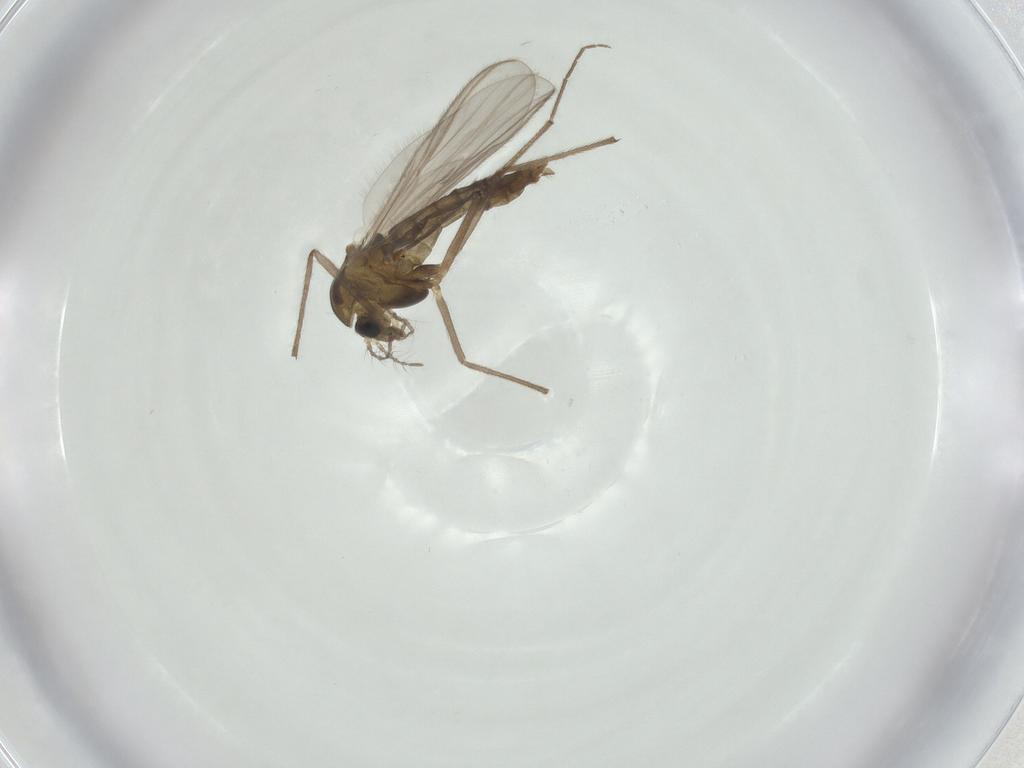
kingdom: Animalia
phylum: Arthropoda
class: Insecta
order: Diptera
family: Chironomidae
